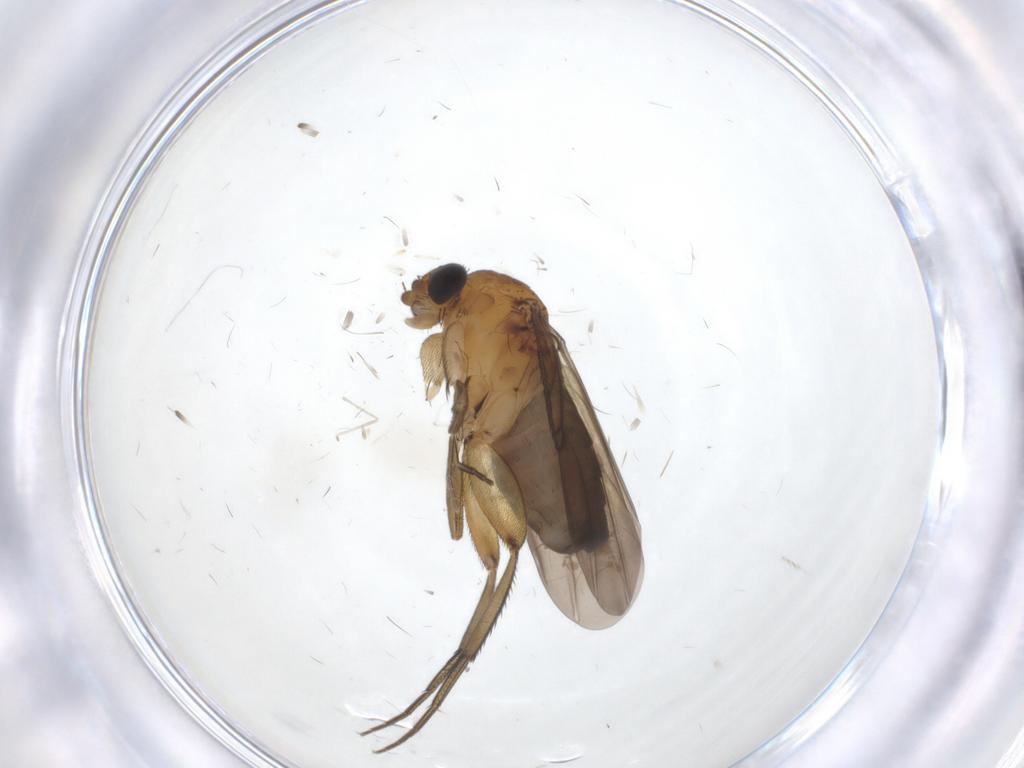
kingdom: Animalia
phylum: Arthropoda
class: Insecta
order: Diptera
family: Phoridae
